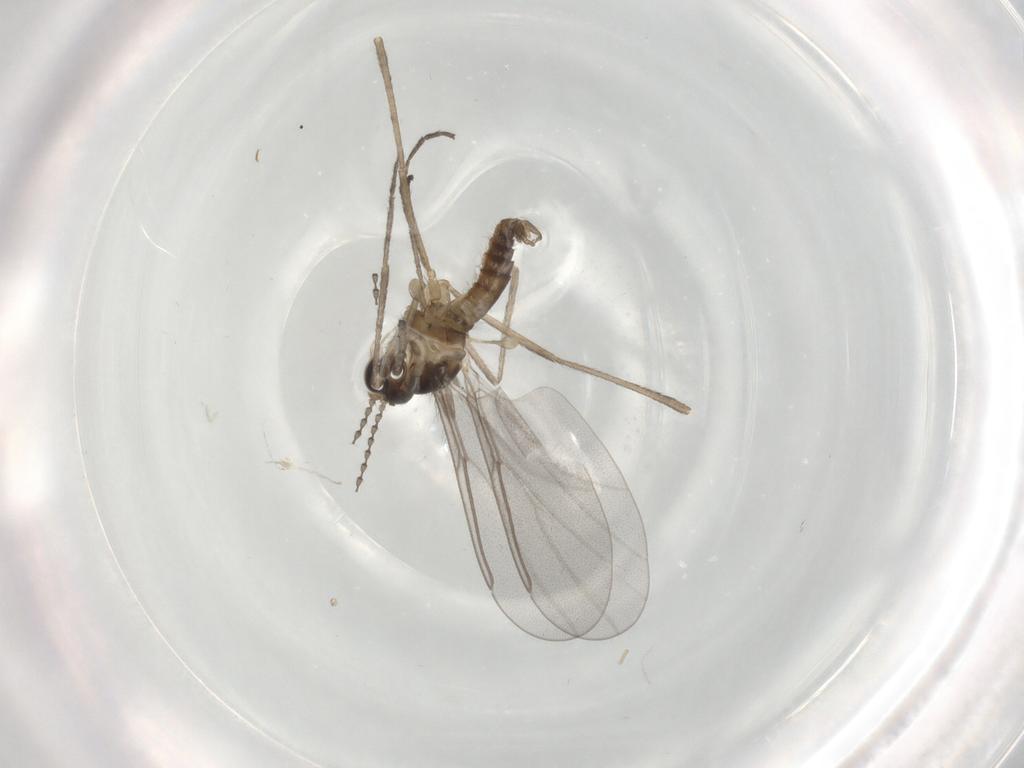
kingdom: Animalia
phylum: Arthropoda
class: Insecta
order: Diptera
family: Cecidomyiidae
